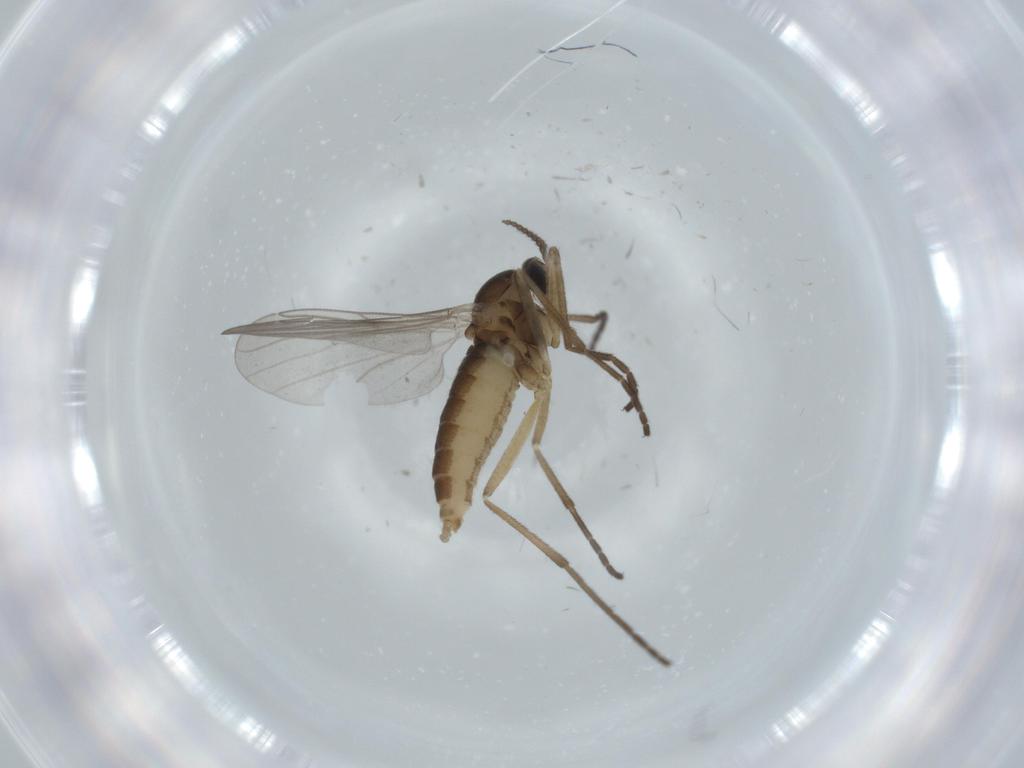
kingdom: Animalia
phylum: Arthropoda
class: Insecta
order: Diptera
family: Cecidomyiidae
